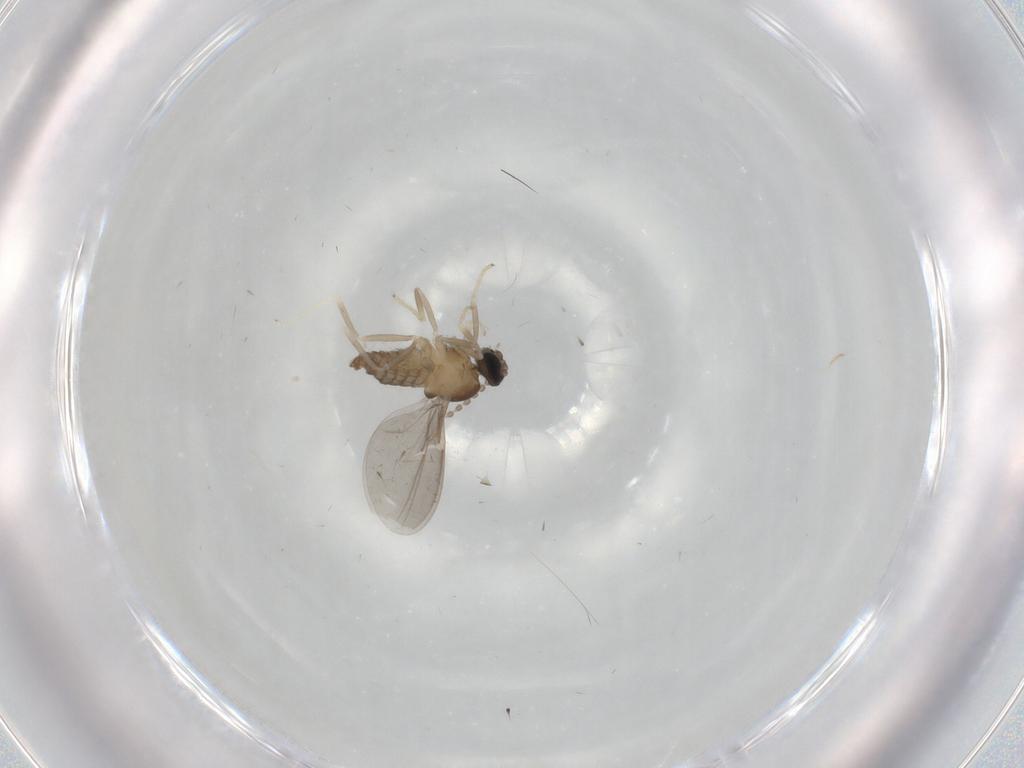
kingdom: Animalia
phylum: Arthropoda
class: Insecta
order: Diptera
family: Cecidomyiidae
